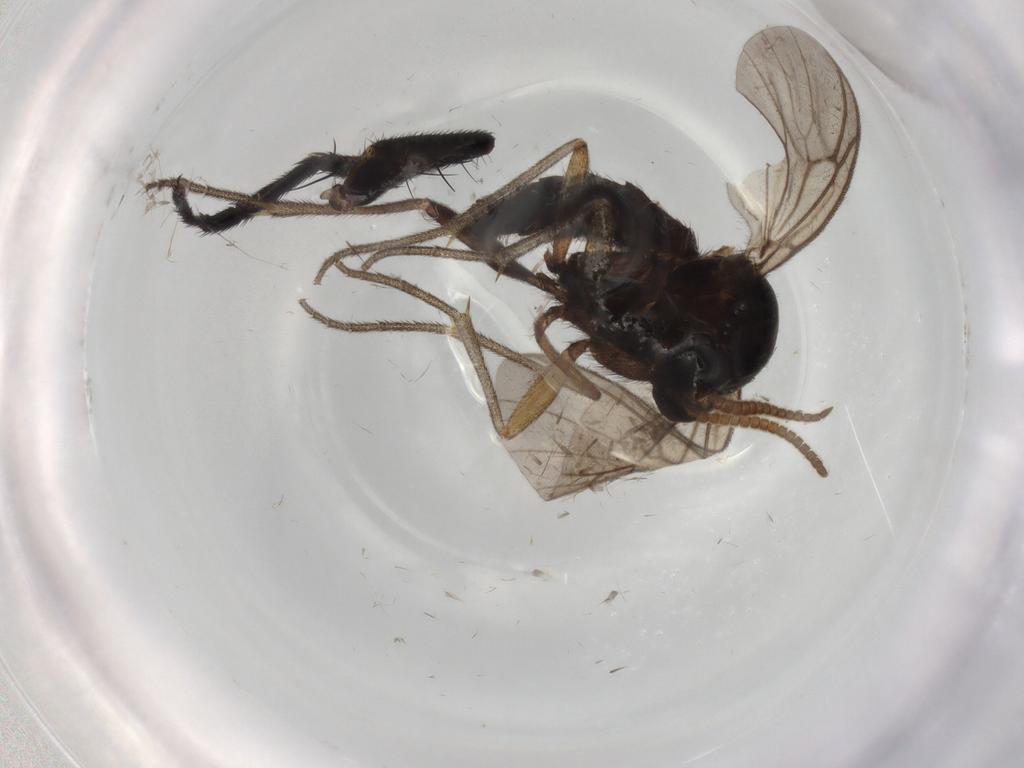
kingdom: Animalia
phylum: Arthropoda
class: Insecta
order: Diptera
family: Mycetophilidae
